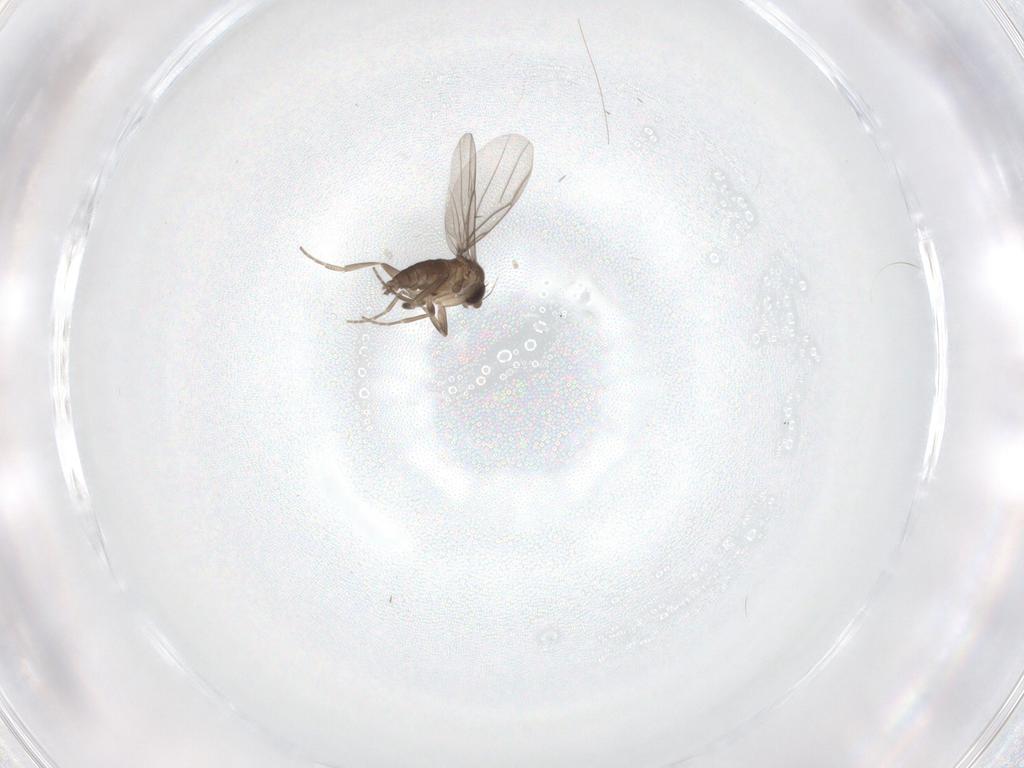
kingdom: Animalia
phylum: Arthropoda
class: Insecta
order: Diptera
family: Phoridae
